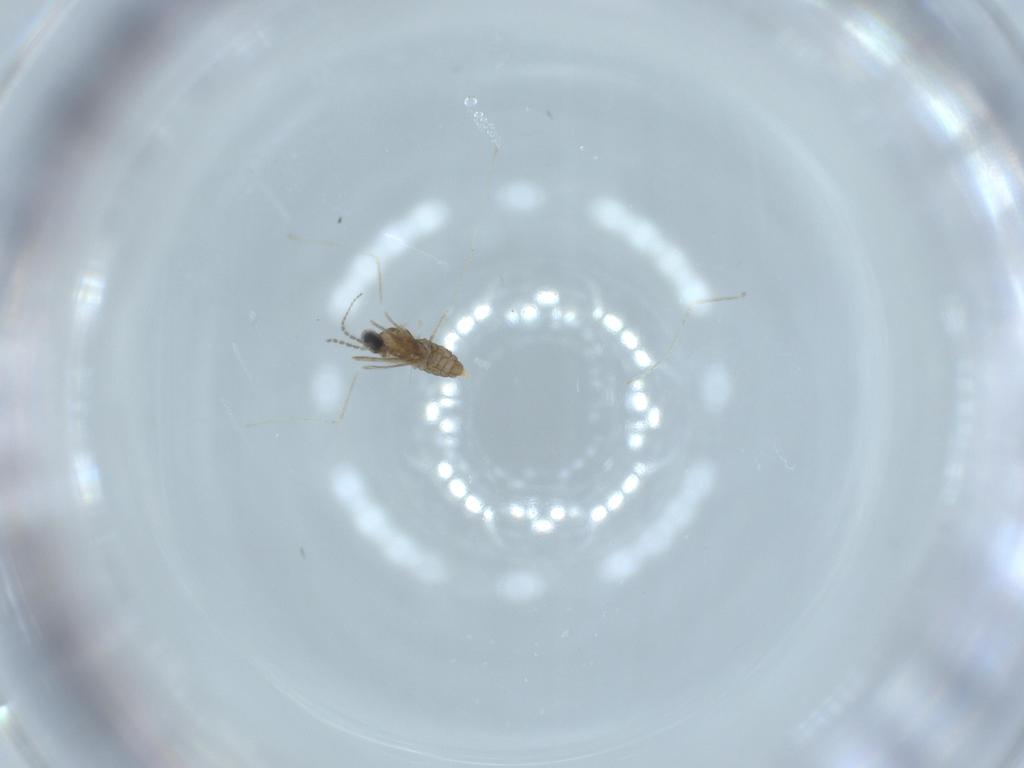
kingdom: Animalia
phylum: Arthropoda
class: Insecta
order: Diptera
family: Cecidomyiidae
